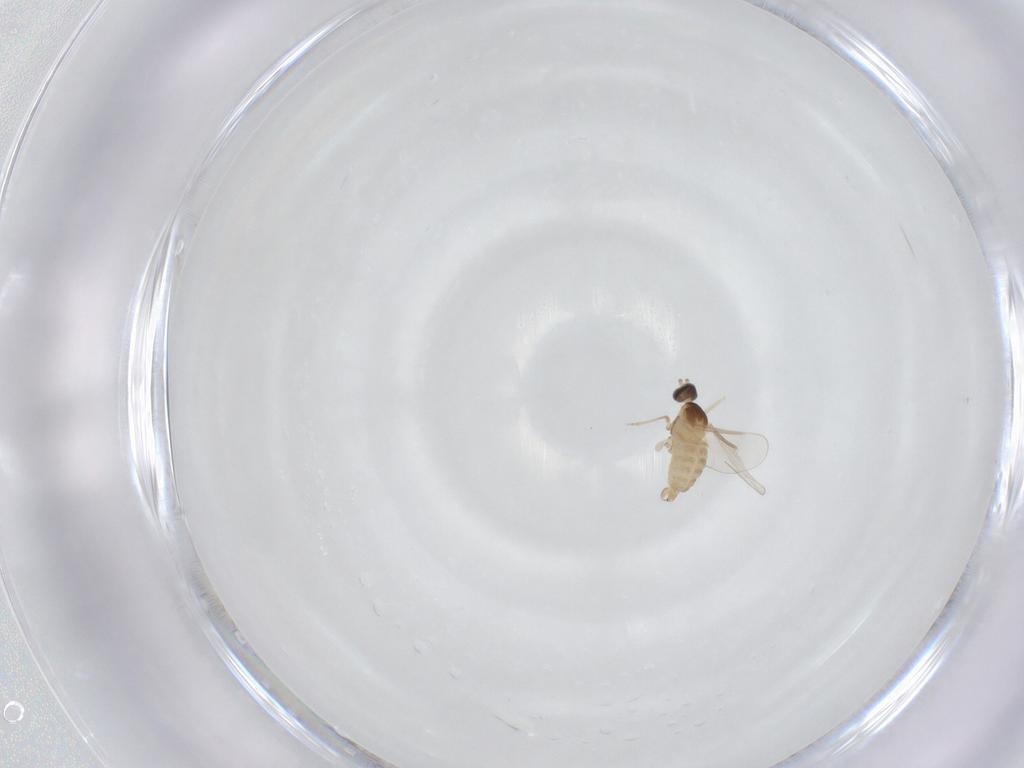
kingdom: Animalia
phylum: Arthropoda
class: Insecta
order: Diptera
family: Cecidomyiidae
